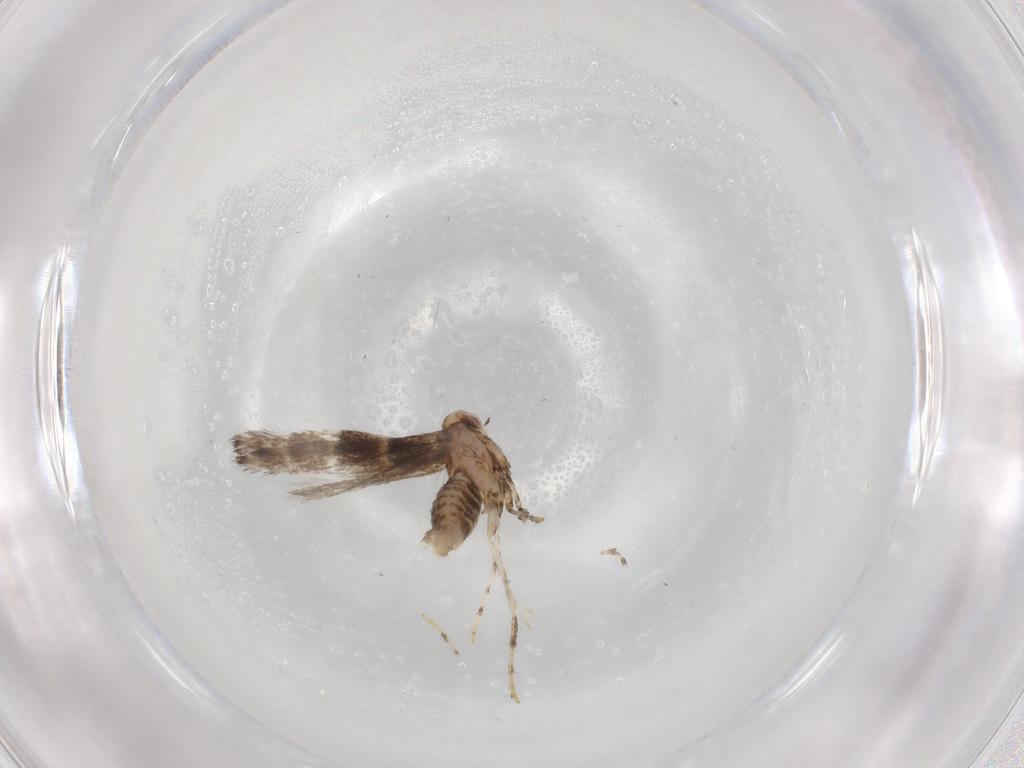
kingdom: Animalia
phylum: Arthropoda
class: Insecta
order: Lepidoptera
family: Gracillariidae
